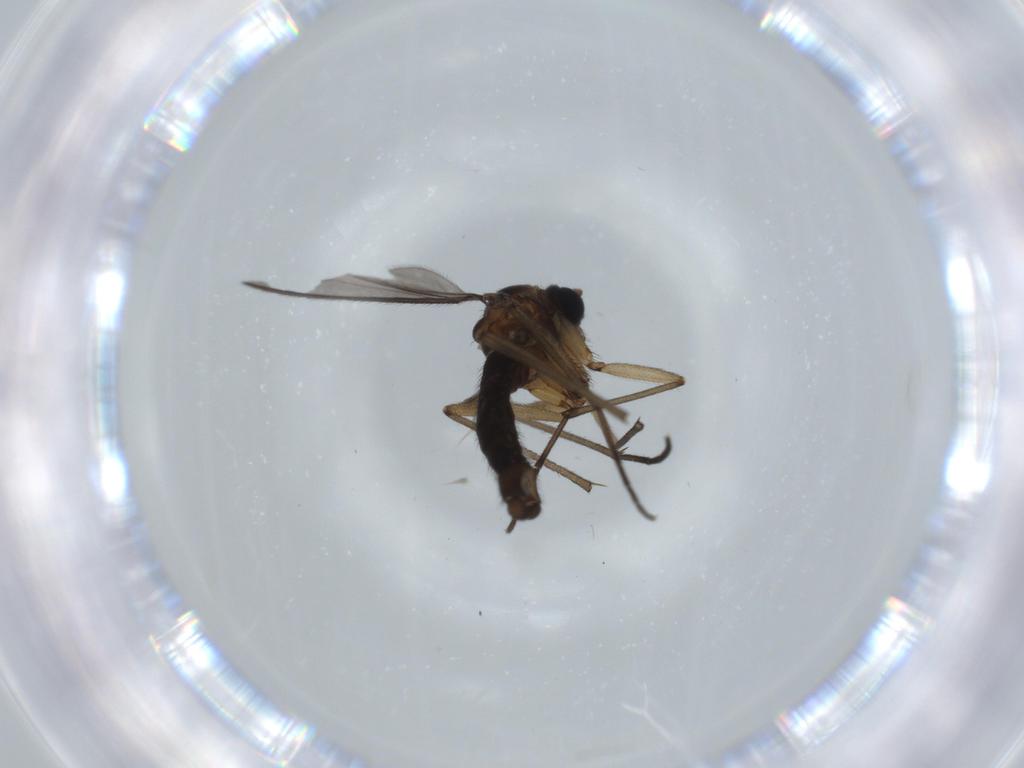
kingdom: Animalia
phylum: Arthropoda
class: Insecta
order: Diptera
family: Sciaridae
